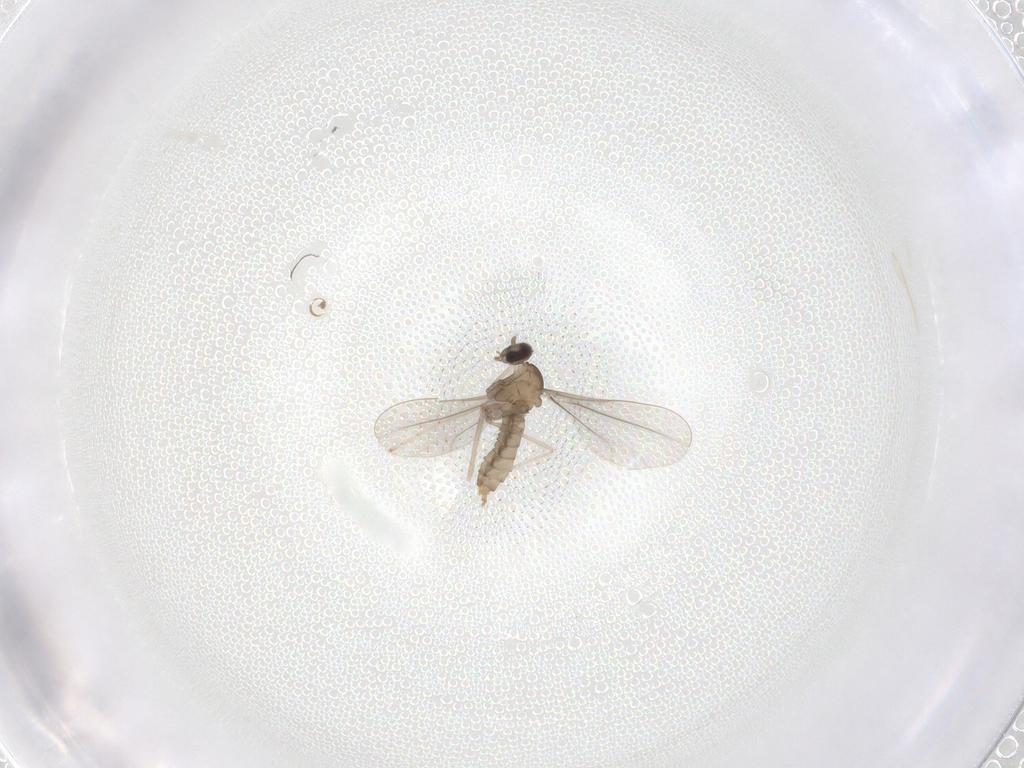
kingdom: Animalia
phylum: Arthropoda
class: Insecta
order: Diptera
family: Cecidomyiidae
